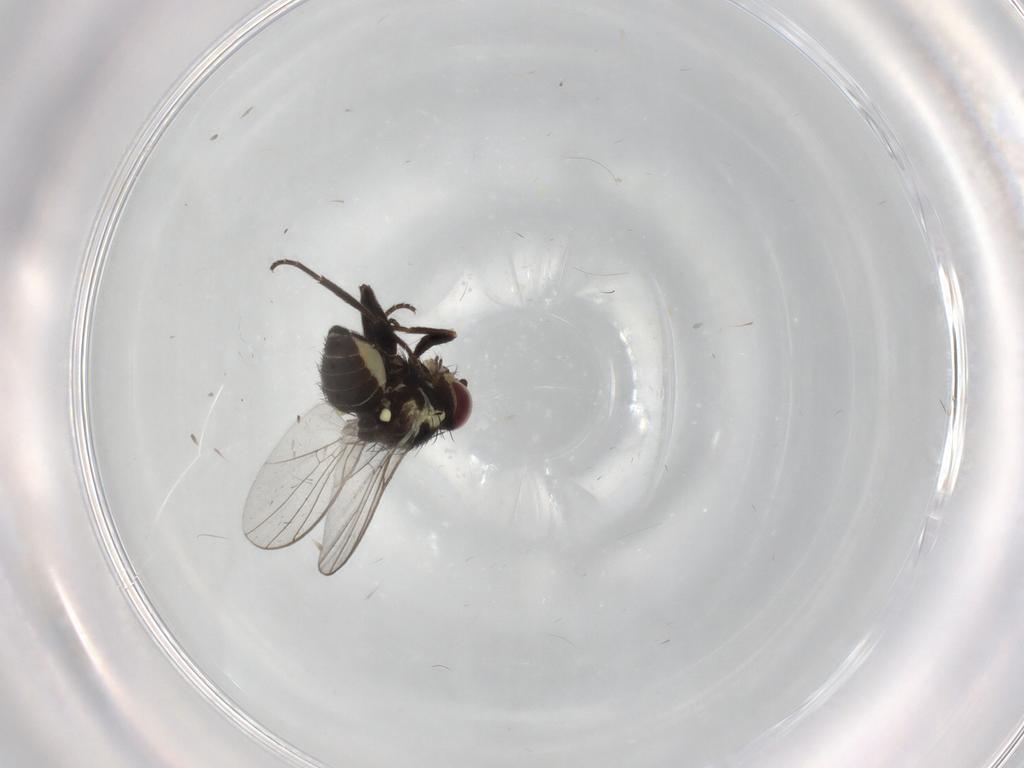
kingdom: Animalia
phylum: Arthropoda
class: Insecta
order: Diptera
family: Agromyzidae
